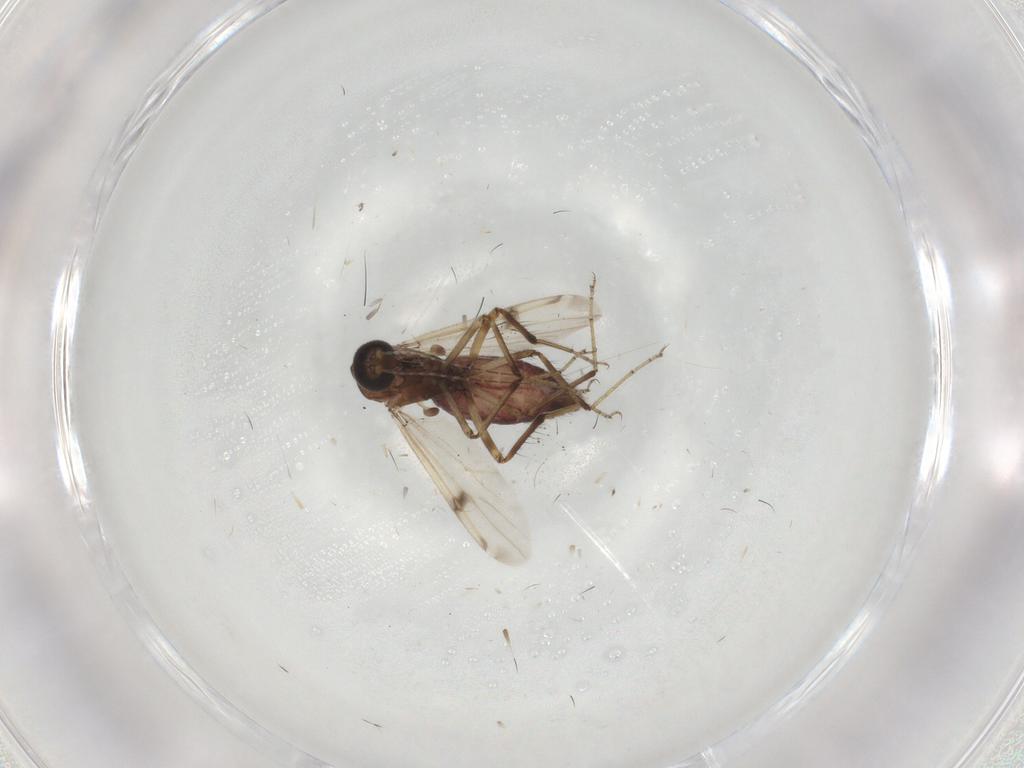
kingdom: Animalia
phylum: Arthropoda
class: Insecta
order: Diptera
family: Ceratopogonidae
